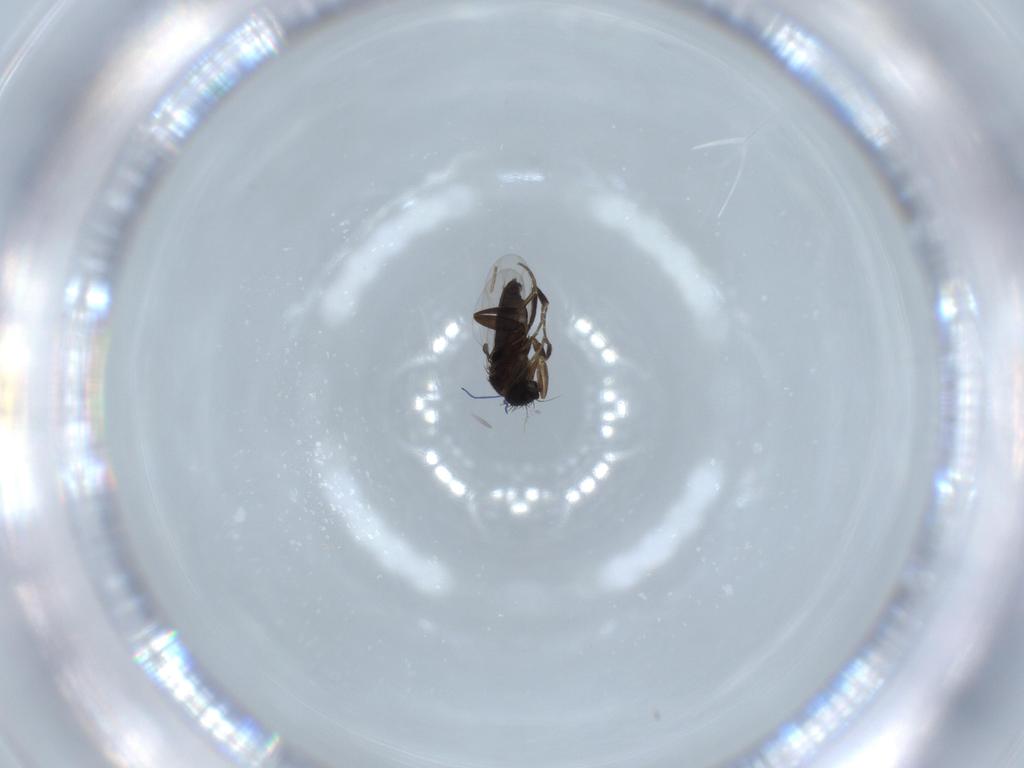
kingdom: Animalia
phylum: Arthropoda
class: Insecta
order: Diptera
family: Phoridae
